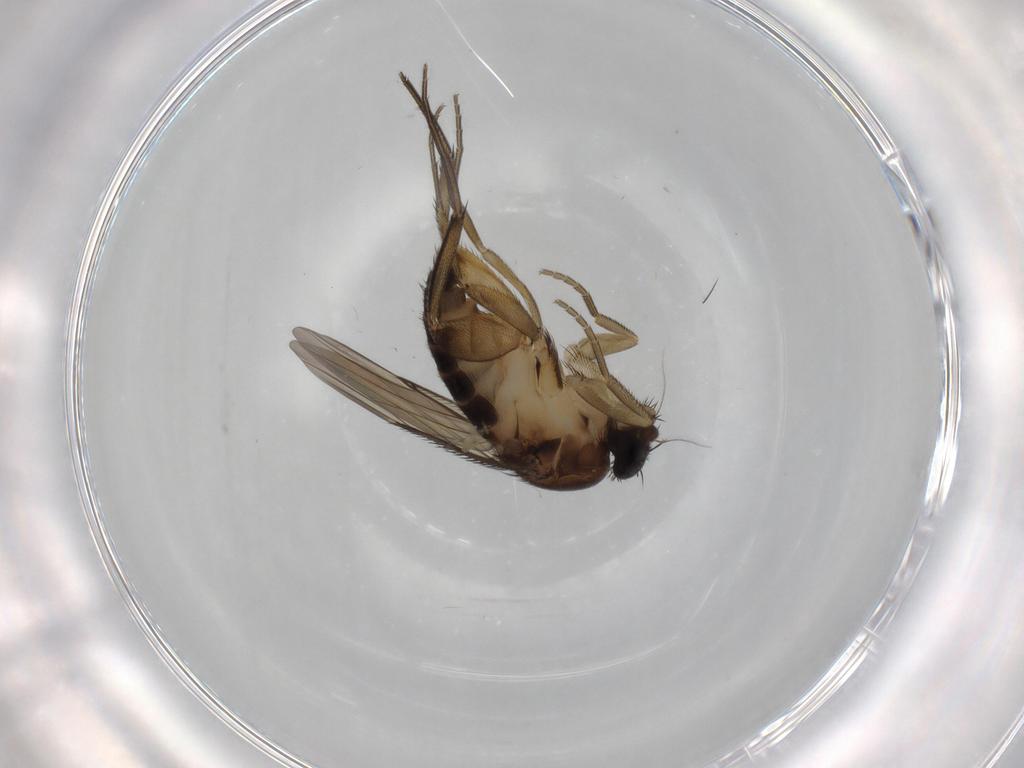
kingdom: Animalia
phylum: Arthropoda
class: Insecta
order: Diptera
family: Phoridae
